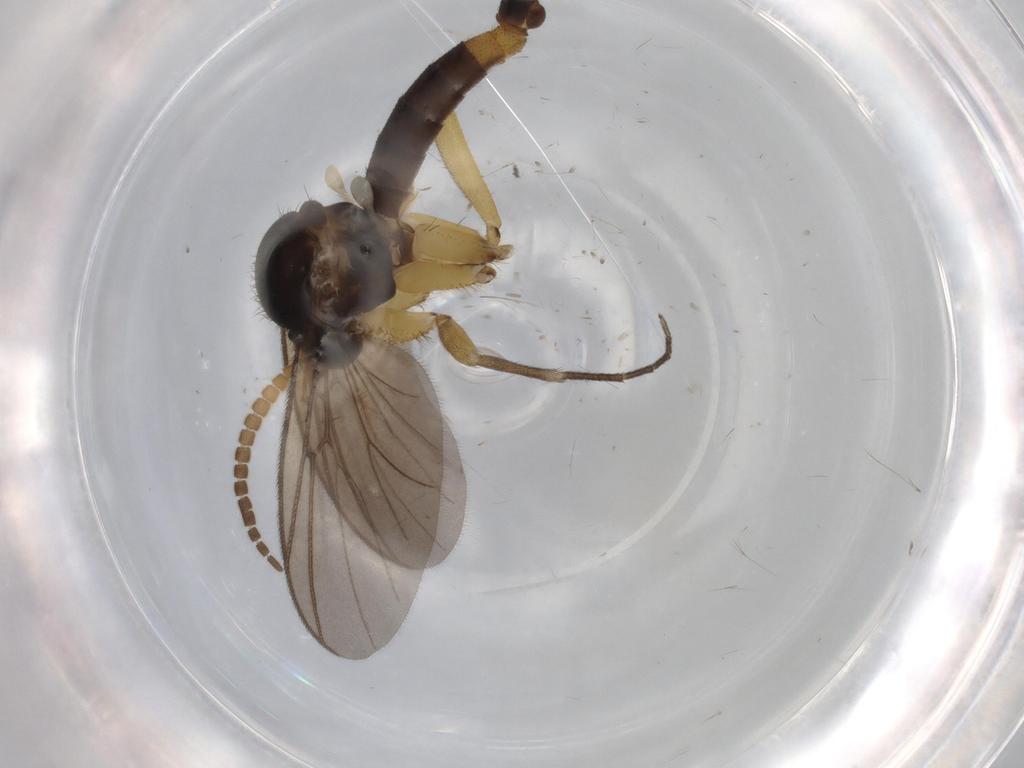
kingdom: Animalia
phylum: Arthropoda
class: Insecta
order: Diptera
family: Mycetophilidae
